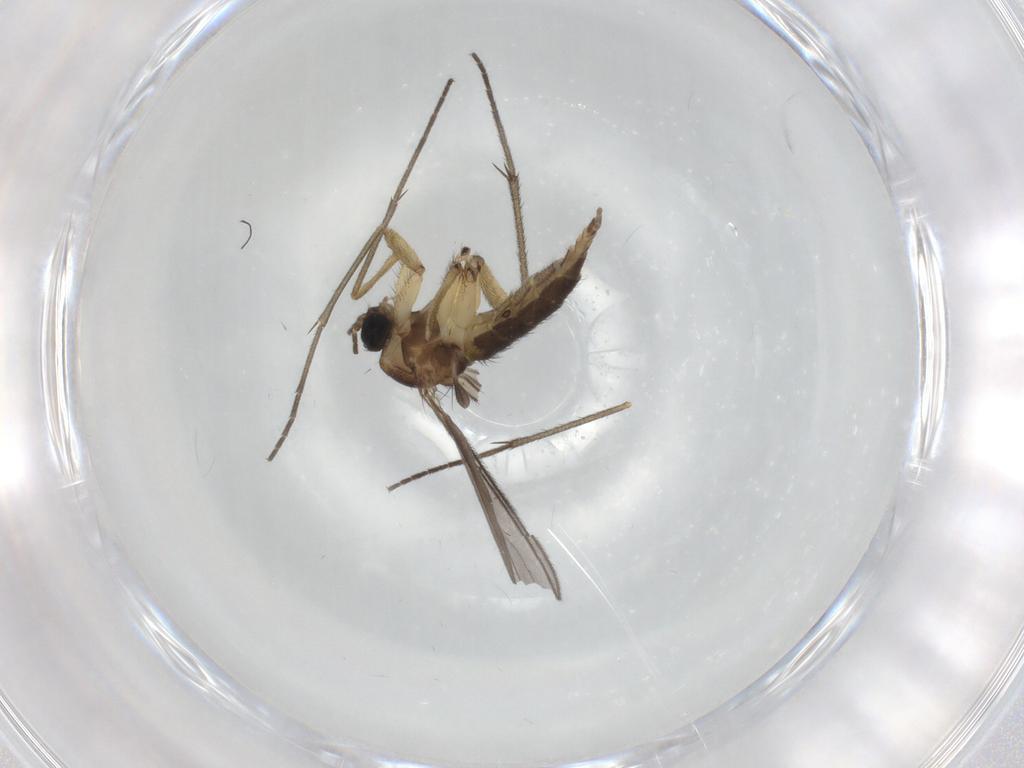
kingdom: Animalia
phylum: Arthropoda
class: Insecta
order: Diptera
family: Sciaridae
